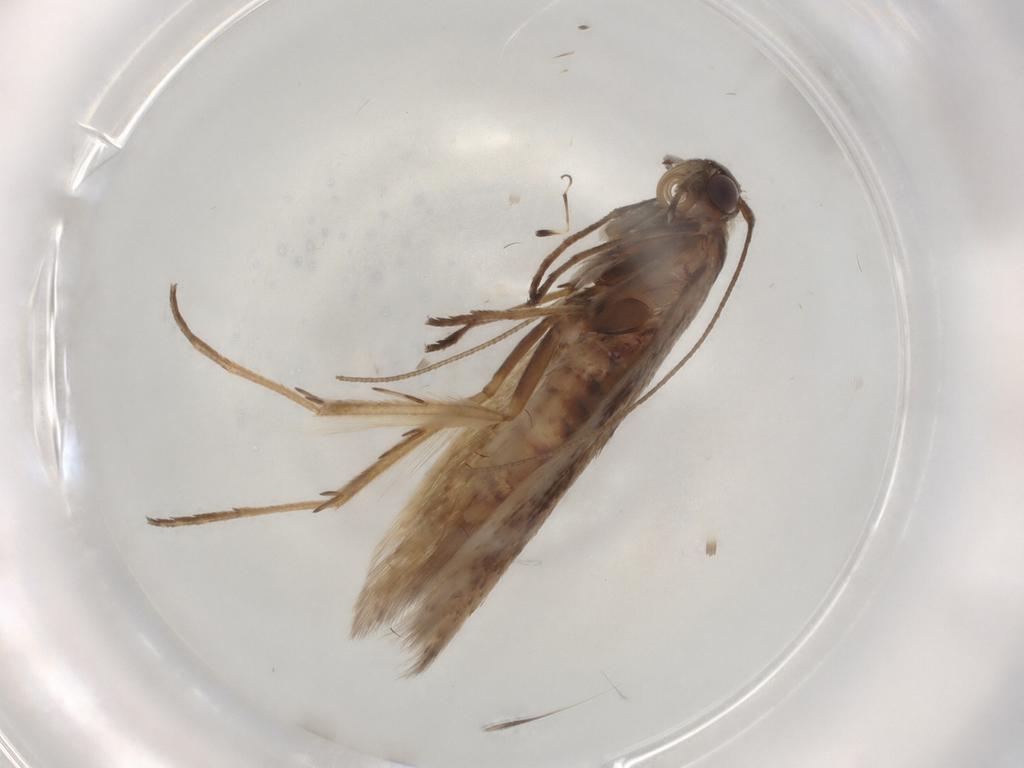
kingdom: Animalia
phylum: Arthropoda
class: Insecta
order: Lepidoptera
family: Scythrididae
